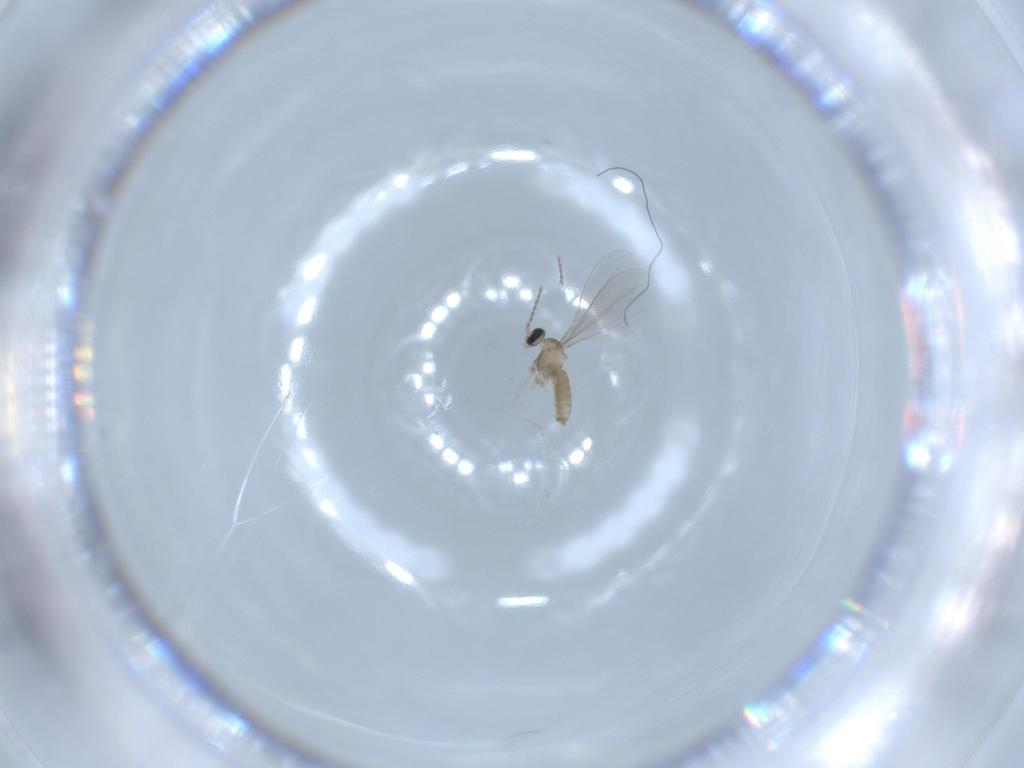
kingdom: Animalia
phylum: Arthropoda
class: Insecta
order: Diptera
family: Cecidomyiidae
